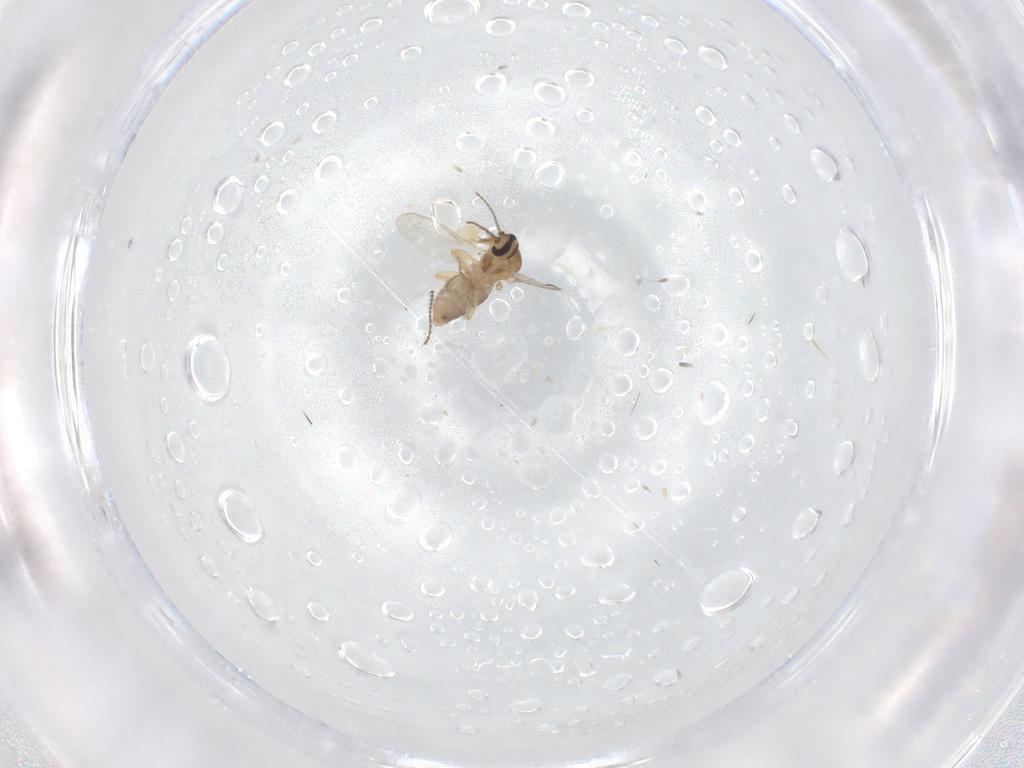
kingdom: Animalia
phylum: Arthropoda
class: Insecta
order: Diptera
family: Ceratopogonidae
